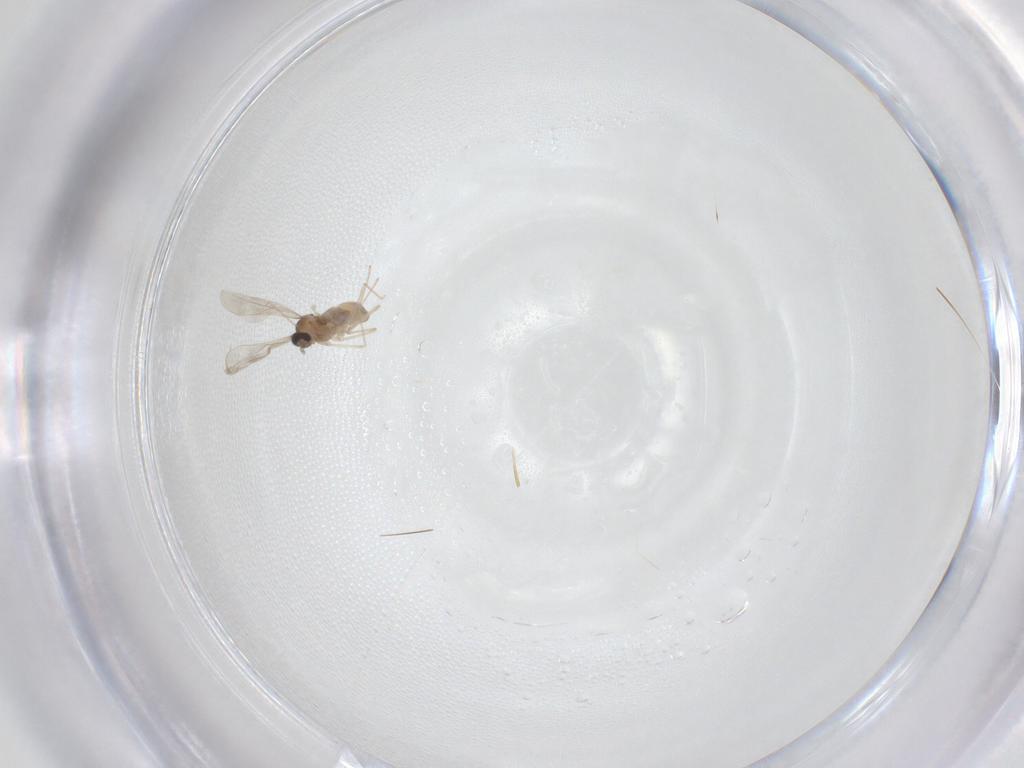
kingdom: Animalia
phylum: Arthropoda
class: Insecta
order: Diptera
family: Cecidomyiidae
